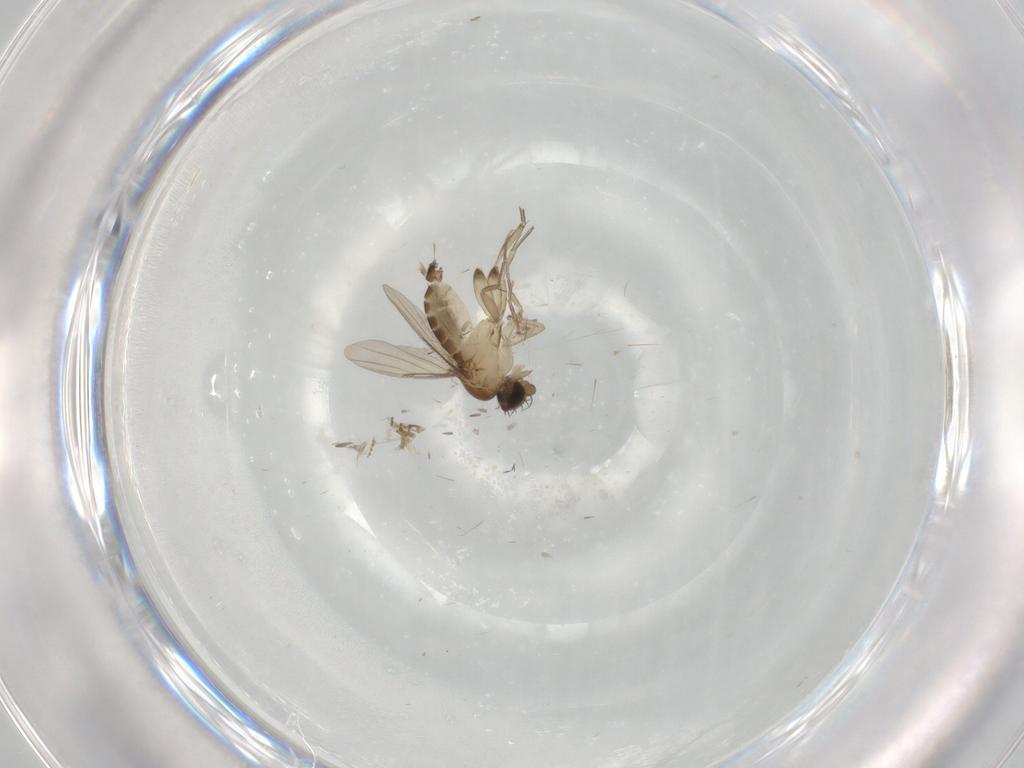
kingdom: Animalia
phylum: Arthropoda
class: Insecta
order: Diptera
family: Phoridae
